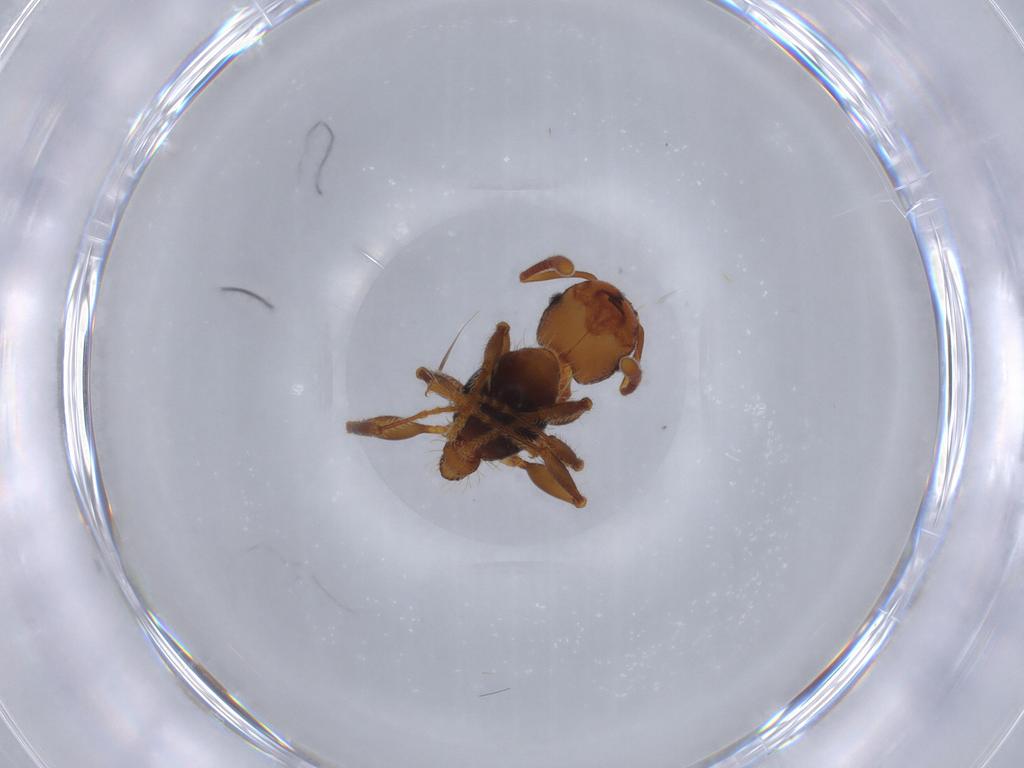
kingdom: Animalia
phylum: Arthropoda
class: Insecta
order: Hymenoptera
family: Formicidae
